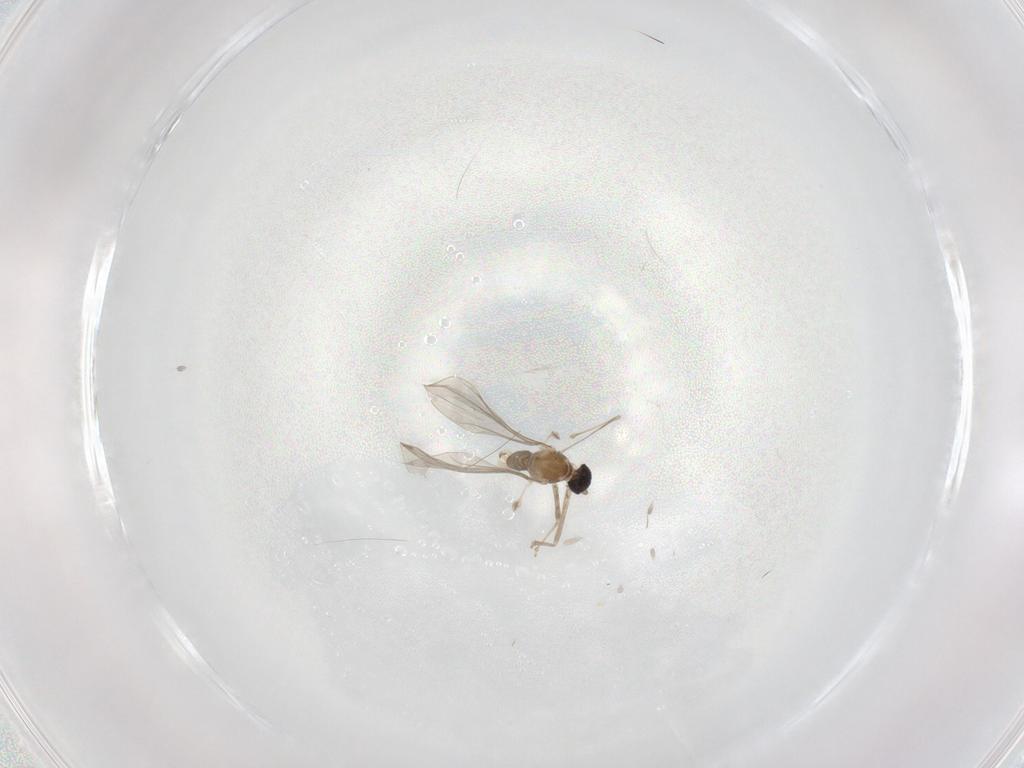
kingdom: Animalia
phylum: Arthropoda
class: Insecta
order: Diptera
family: Cecidomyiidae
